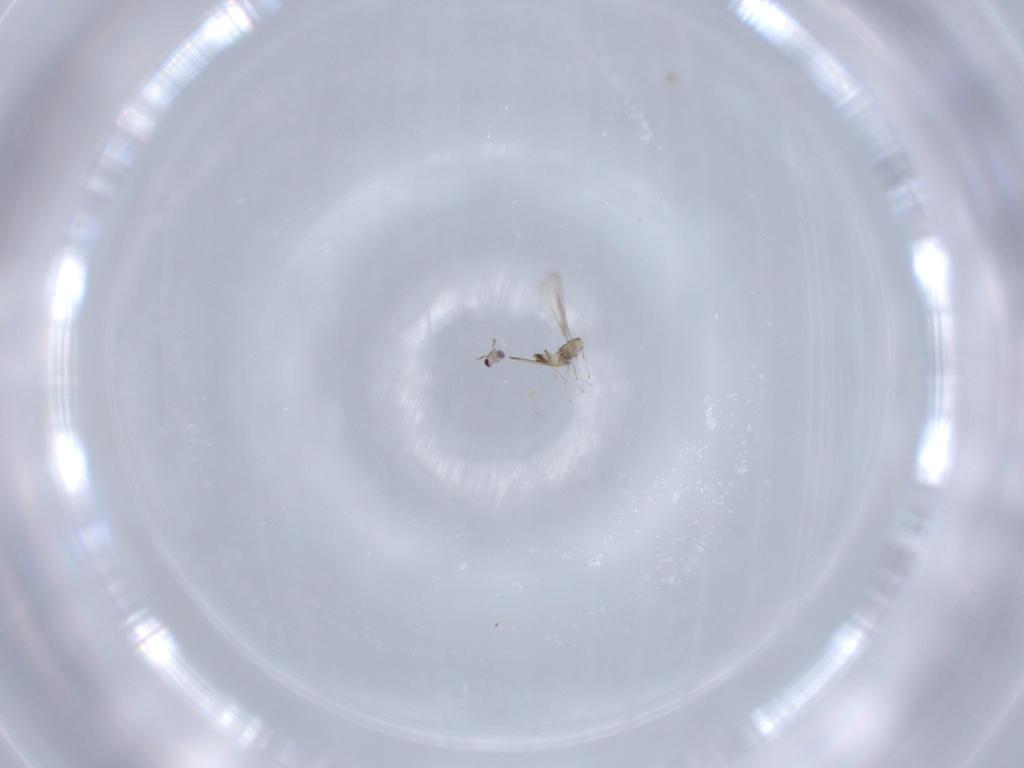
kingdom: Animalia
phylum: Arthropoda
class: Insecta
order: Hymenoptera
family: Mymaridae
